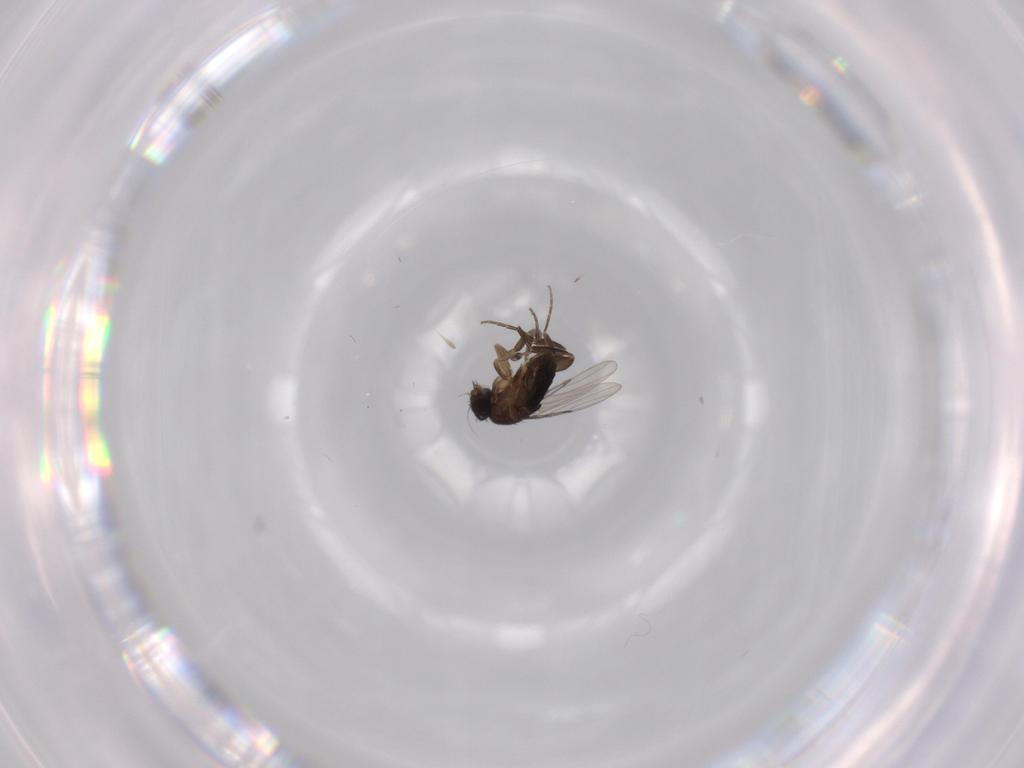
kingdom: Animalia
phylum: Arthropoda
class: Insecta
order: Diptera
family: Phoridae
